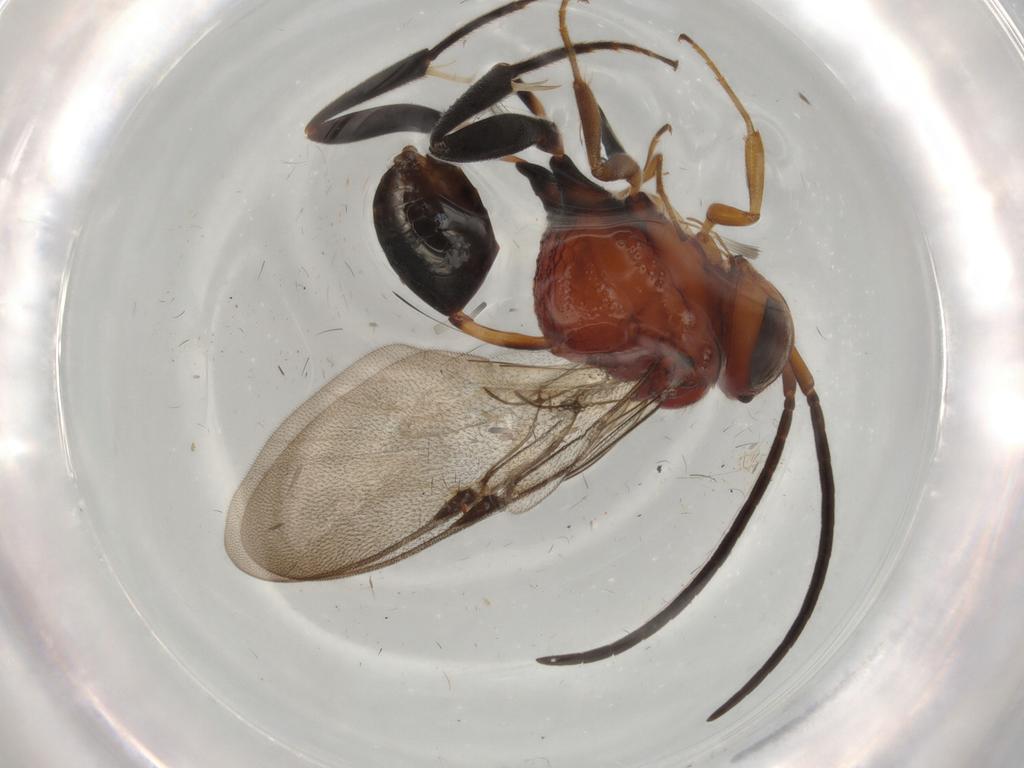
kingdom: Animalia
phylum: Arthropoda
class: Insecta
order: Hymenoptera
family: Evaniidae
